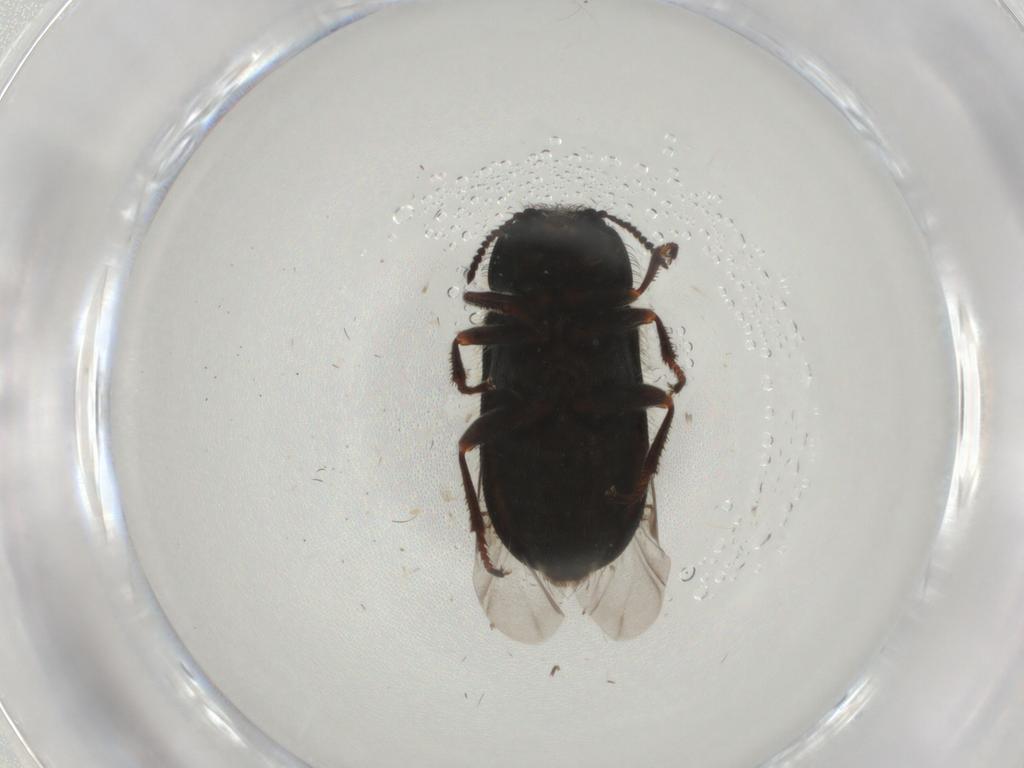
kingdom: Animalia
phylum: Arthropoda
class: Insecta
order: Coleoptera
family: Melyridae
